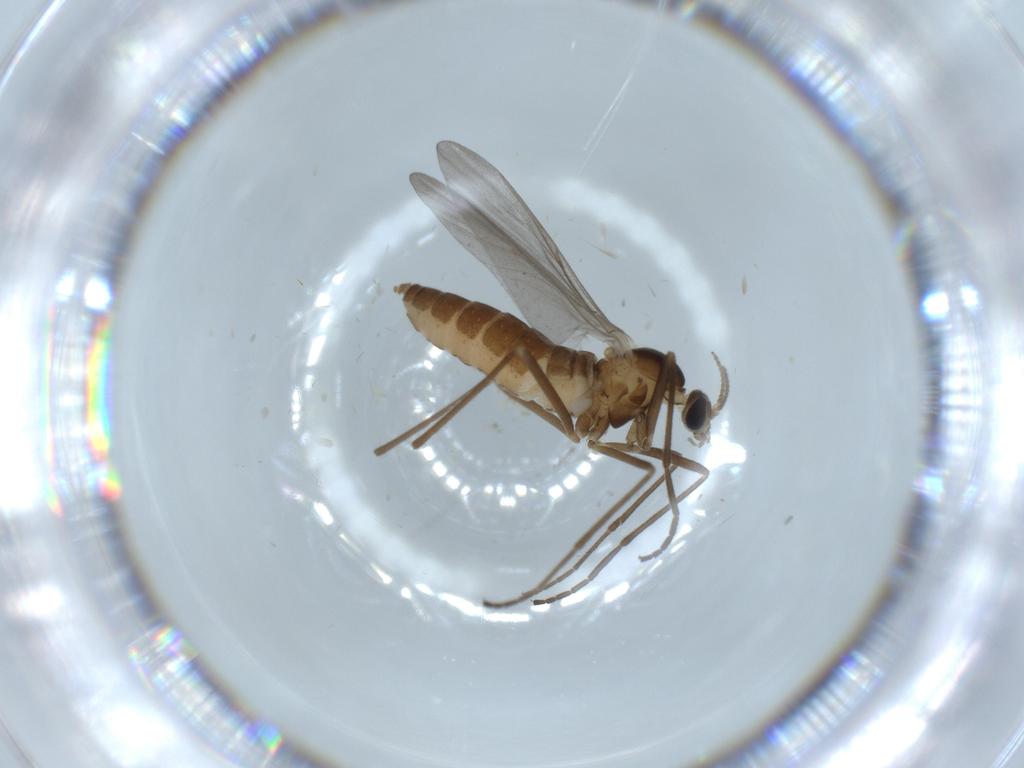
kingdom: Animalia
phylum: Arthropoda
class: Insecta
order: Diptera
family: Cecidomyiidae
